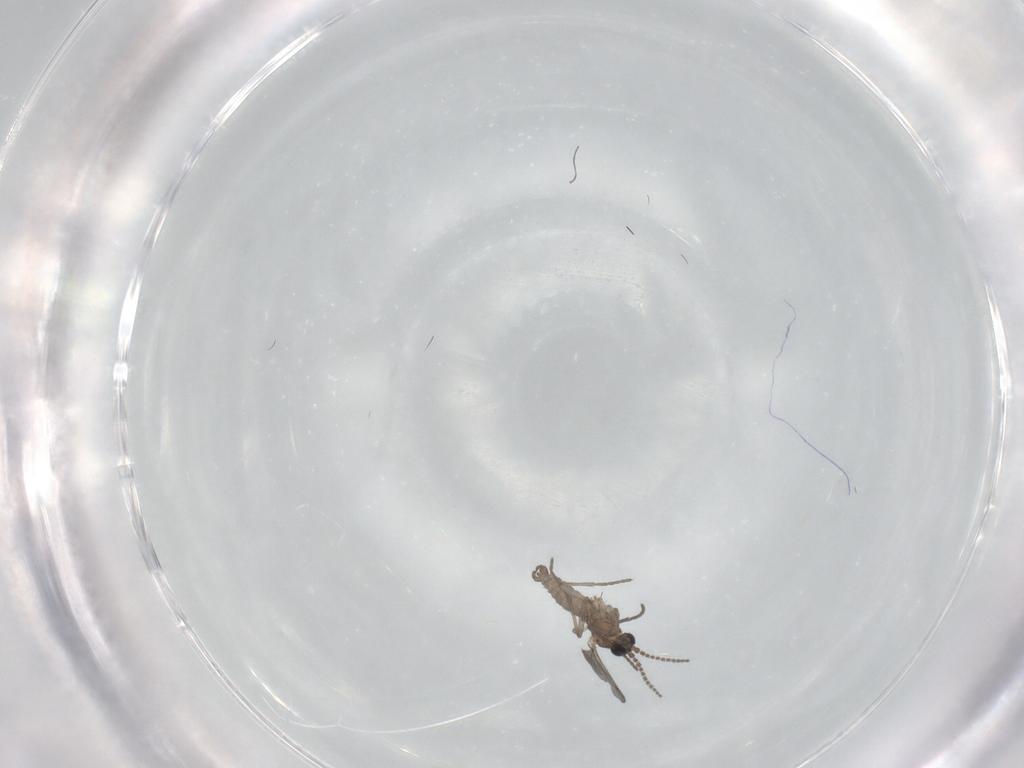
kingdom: Animalia
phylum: Arthropoda
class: Insecta
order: Diptera
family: Sciaridae
